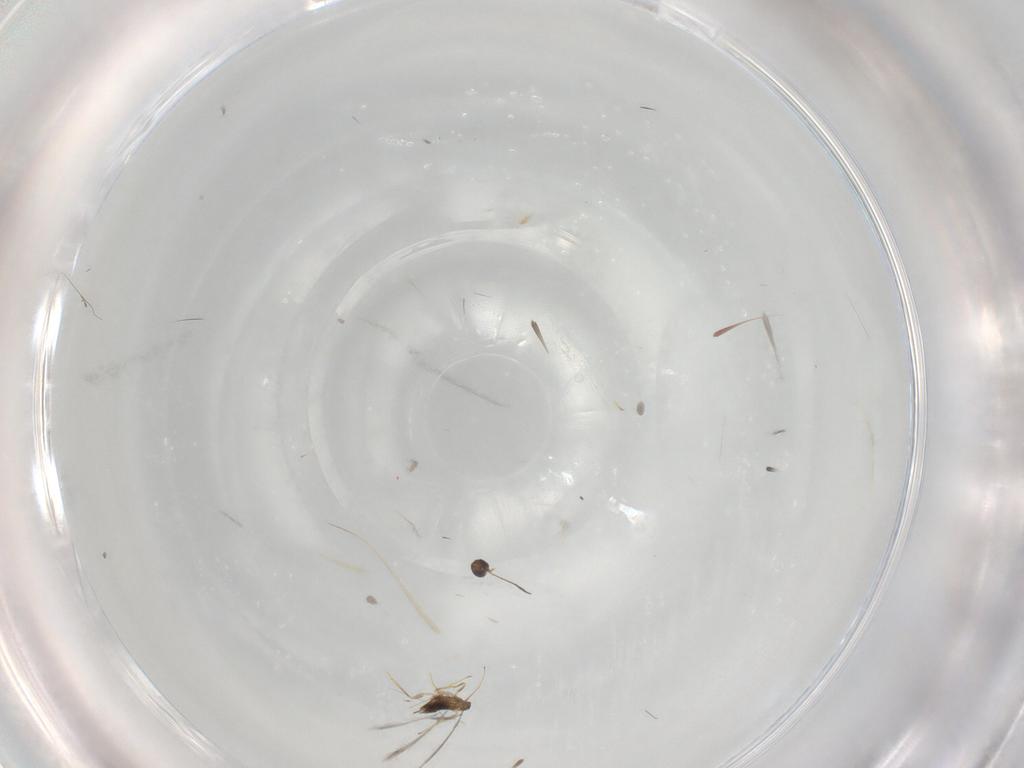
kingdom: Animalia
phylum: Arthropoda
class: Insecta
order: Hymenoptera
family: Mymaridae
